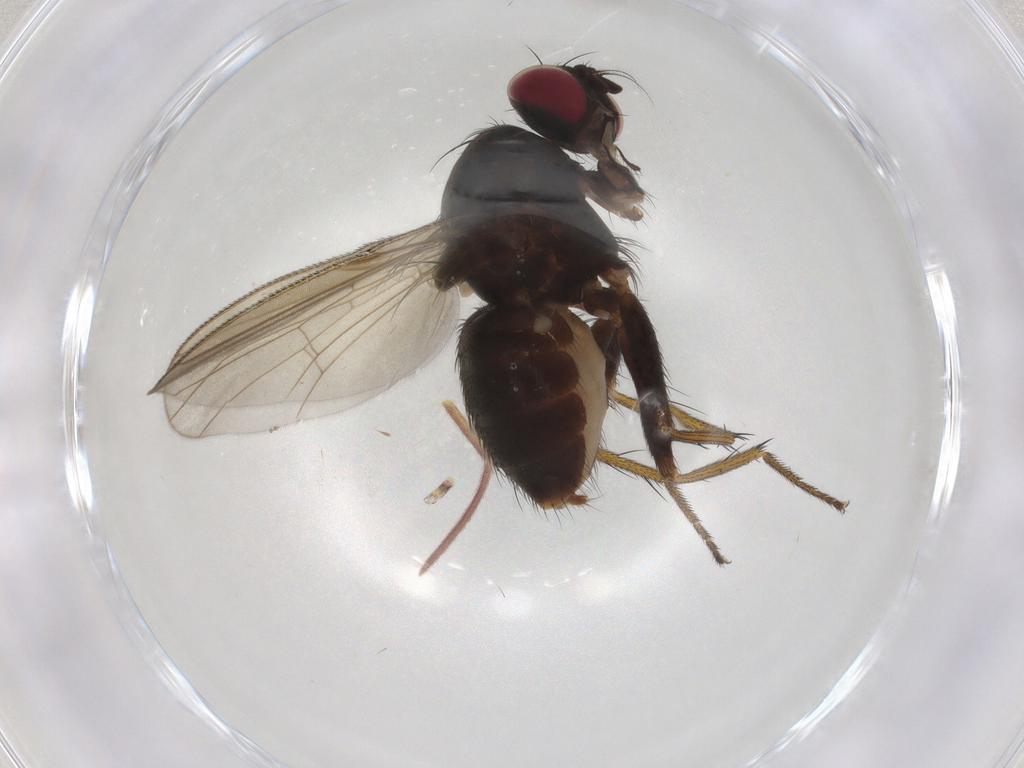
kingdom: Animalia
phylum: Arthropoda
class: Insecta
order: Diptera
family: Muscidae
